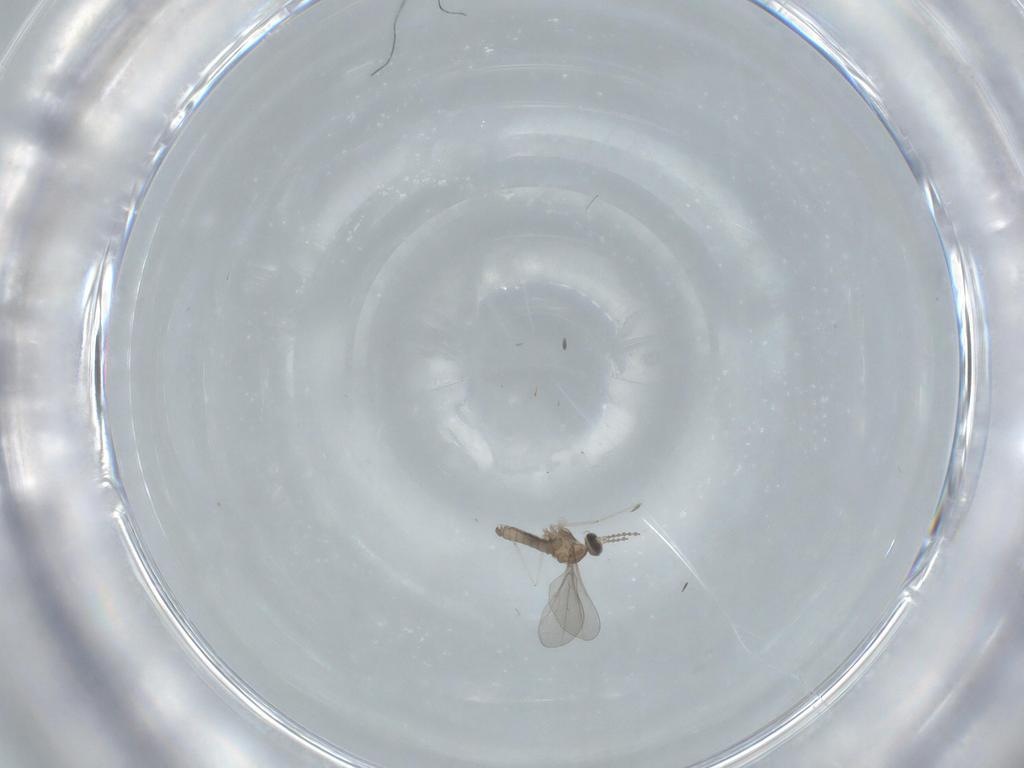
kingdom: Animalia
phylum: Arthropoda
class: Insecta
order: Diptera
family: Cecidomyiidae
